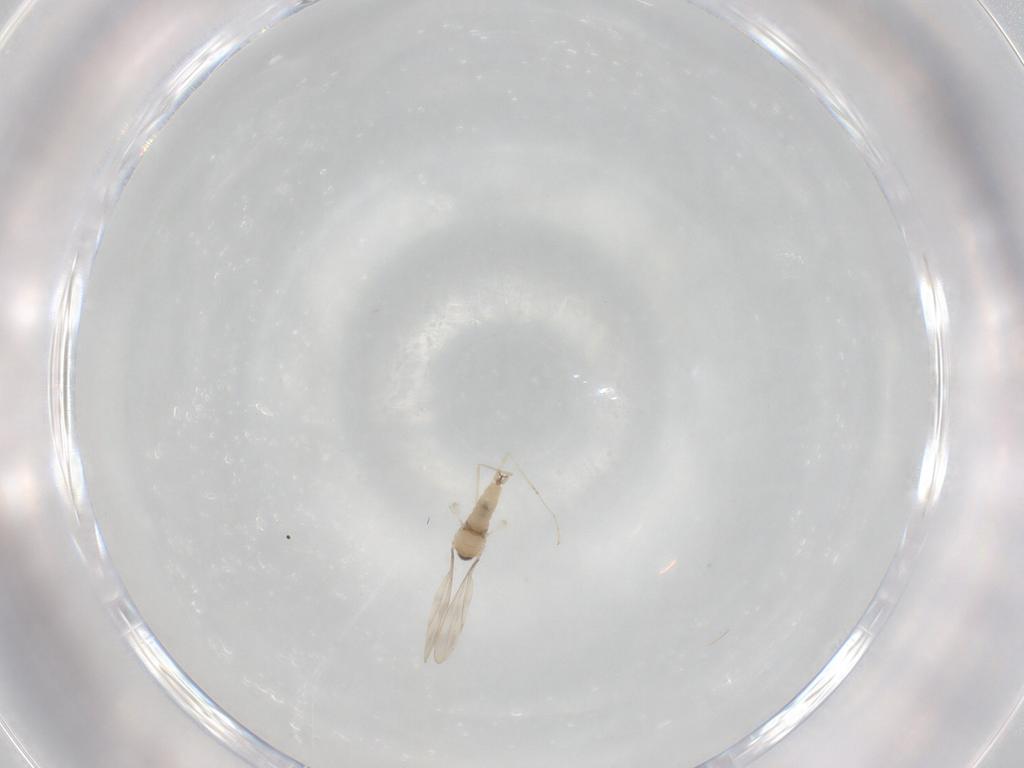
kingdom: Animalia
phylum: Arthropoda
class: Insecta
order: Diptera
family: Cecidomyiidae
